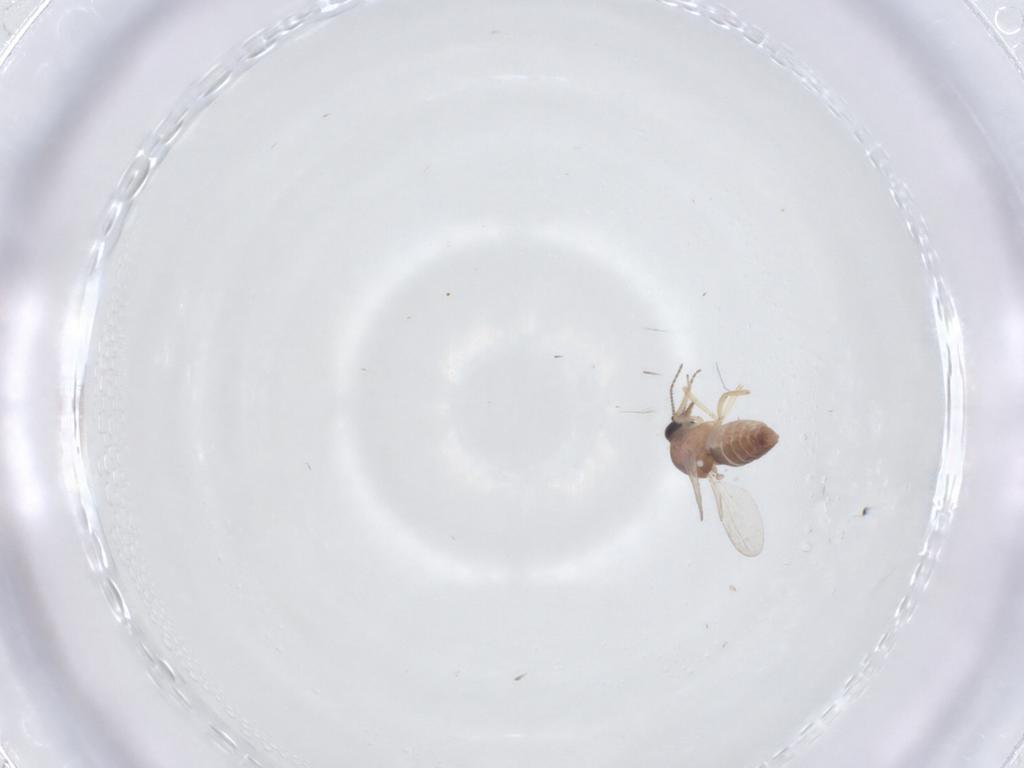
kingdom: Animalia
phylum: Arthropoda
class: Insecta
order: Diptera
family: Ceratopogonidae
